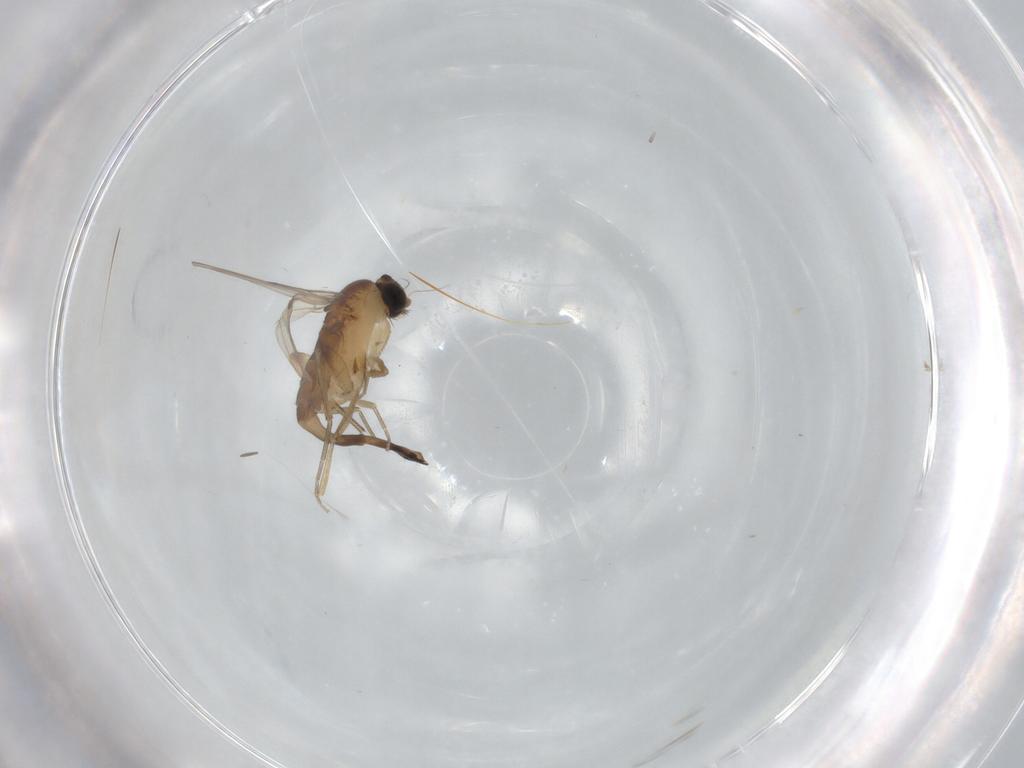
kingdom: Animalia
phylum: Arthropoda
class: Insecta
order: Diptera
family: Phoridae
